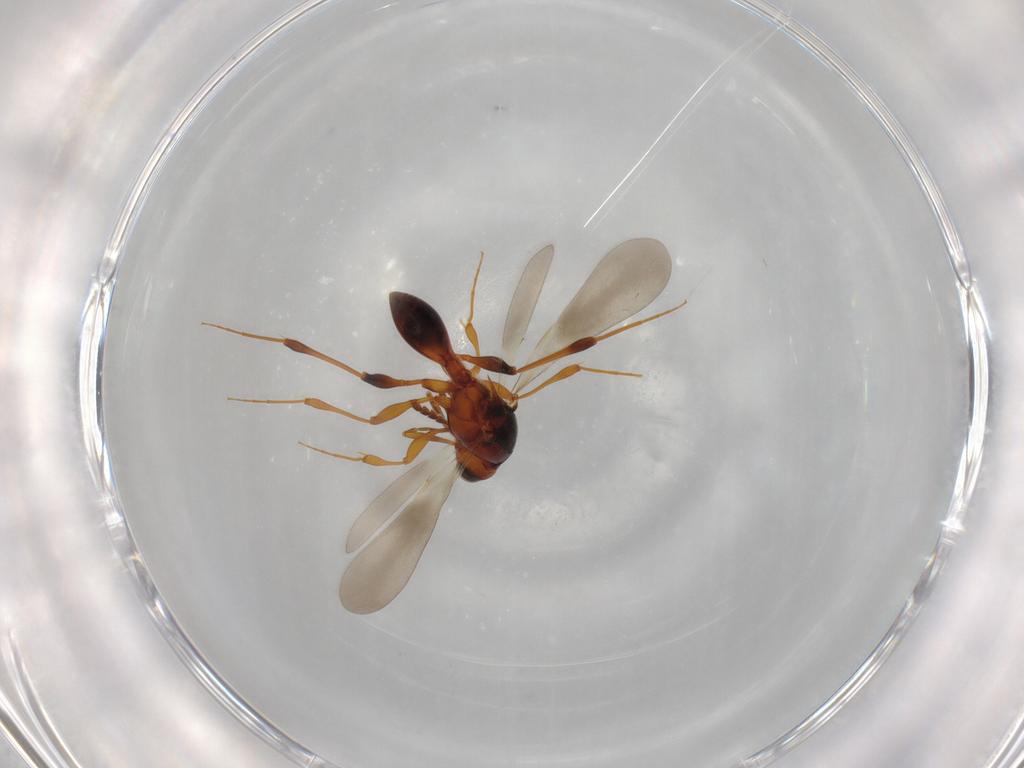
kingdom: Animalia
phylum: Arthropoda
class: Insecta
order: Hymenoptera
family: Platygastridae
